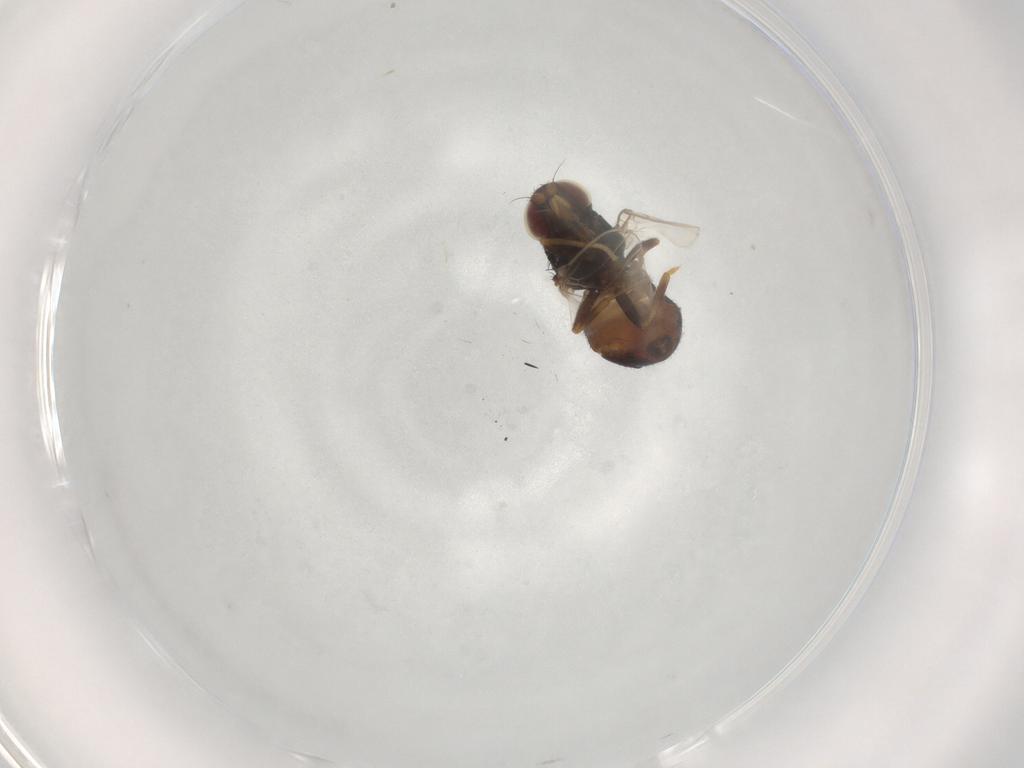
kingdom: Animalia
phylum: Arthropoda
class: Insecta
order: Diptera
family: Chloropidae
